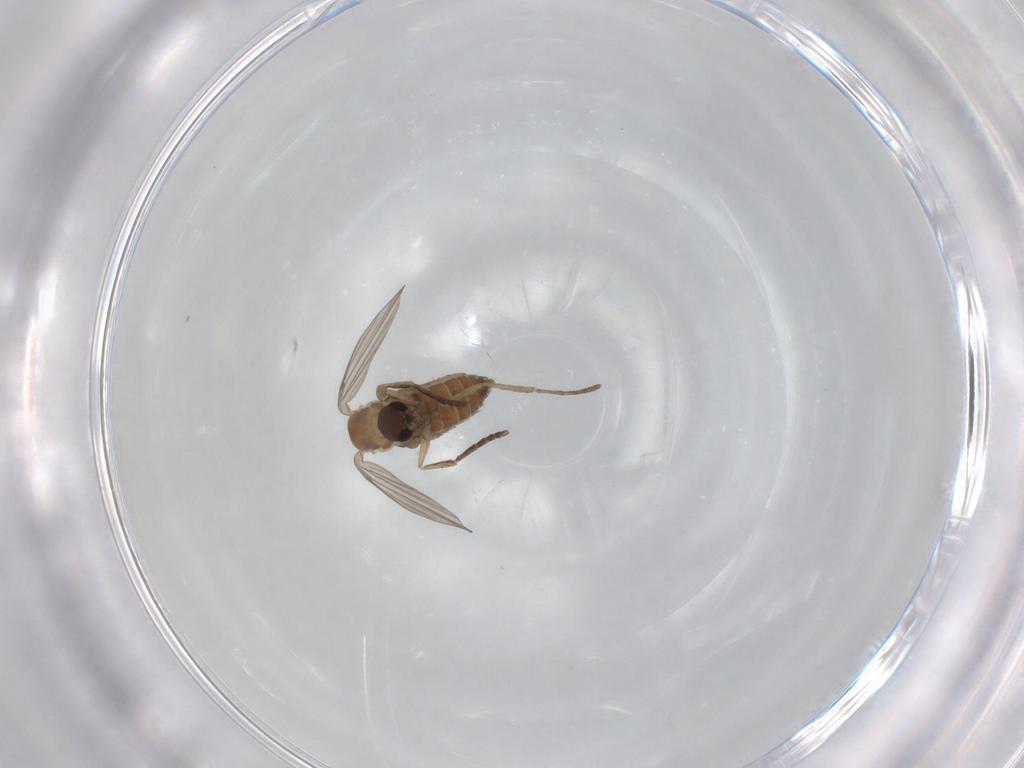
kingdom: Animalia
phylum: Arthropoda
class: Insecta
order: Diptera
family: Psychodidae
